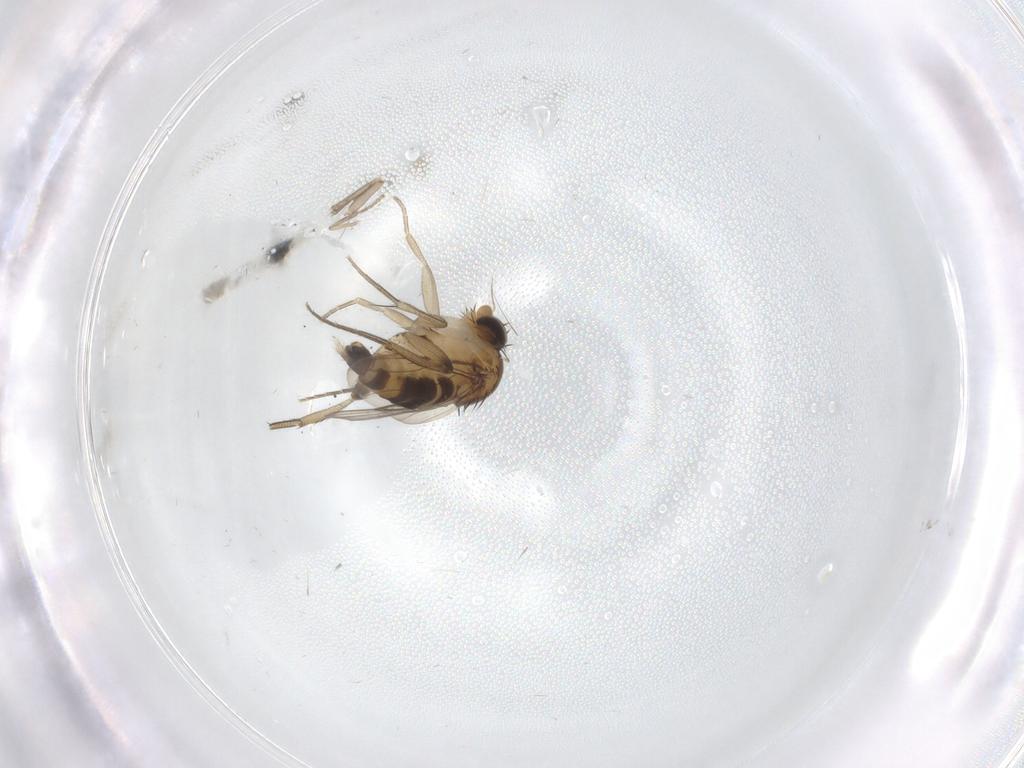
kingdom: Animalia
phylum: Arthropoda
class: Insecta
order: Diptera
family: Phoridae
